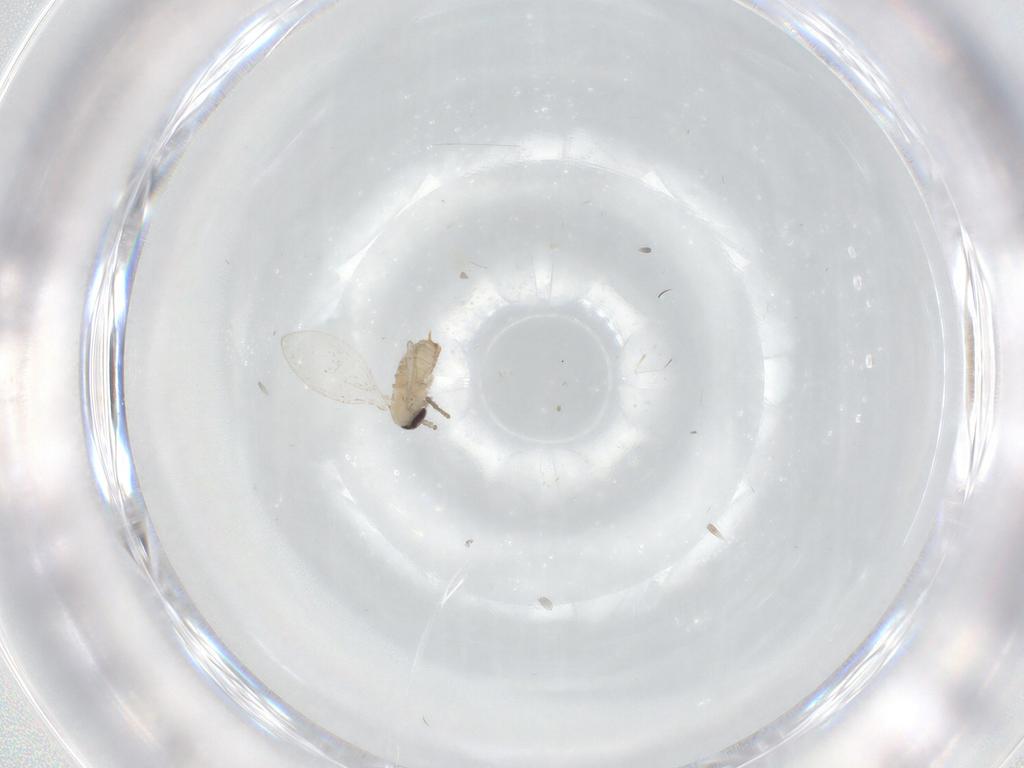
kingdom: Animalia
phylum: Arthropoda
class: Insecta
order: Diptera
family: Psychodidae
